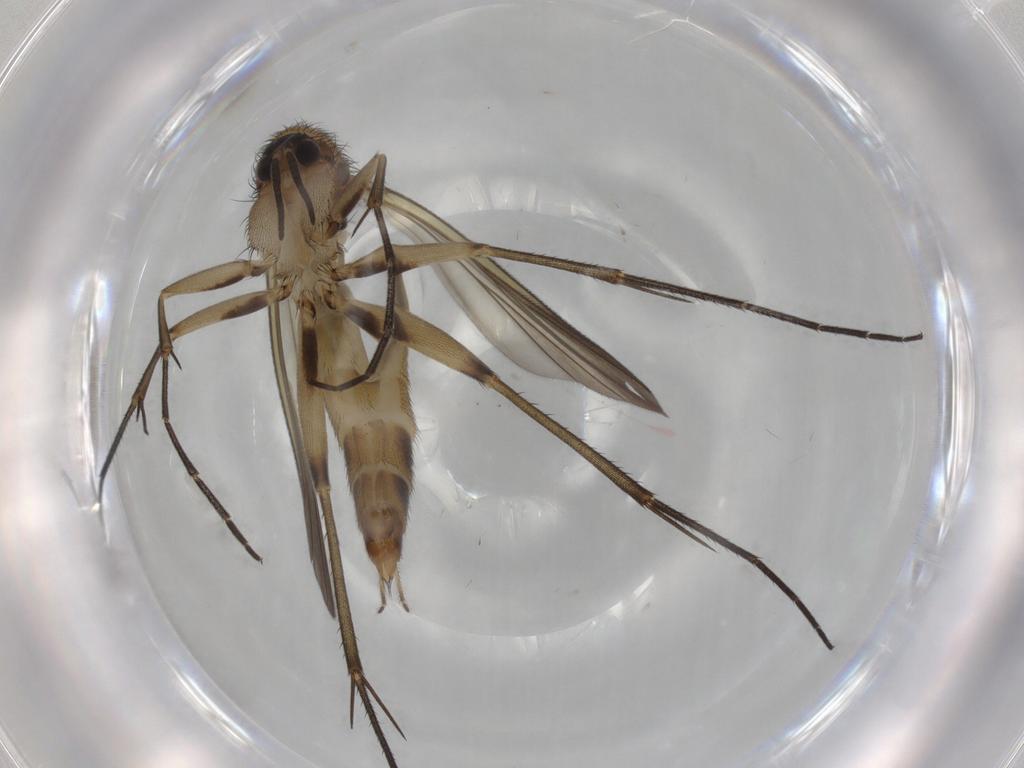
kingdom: Animalia
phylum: Arthropoda
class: Insecta
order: Diptera
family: Mycetophilidae
